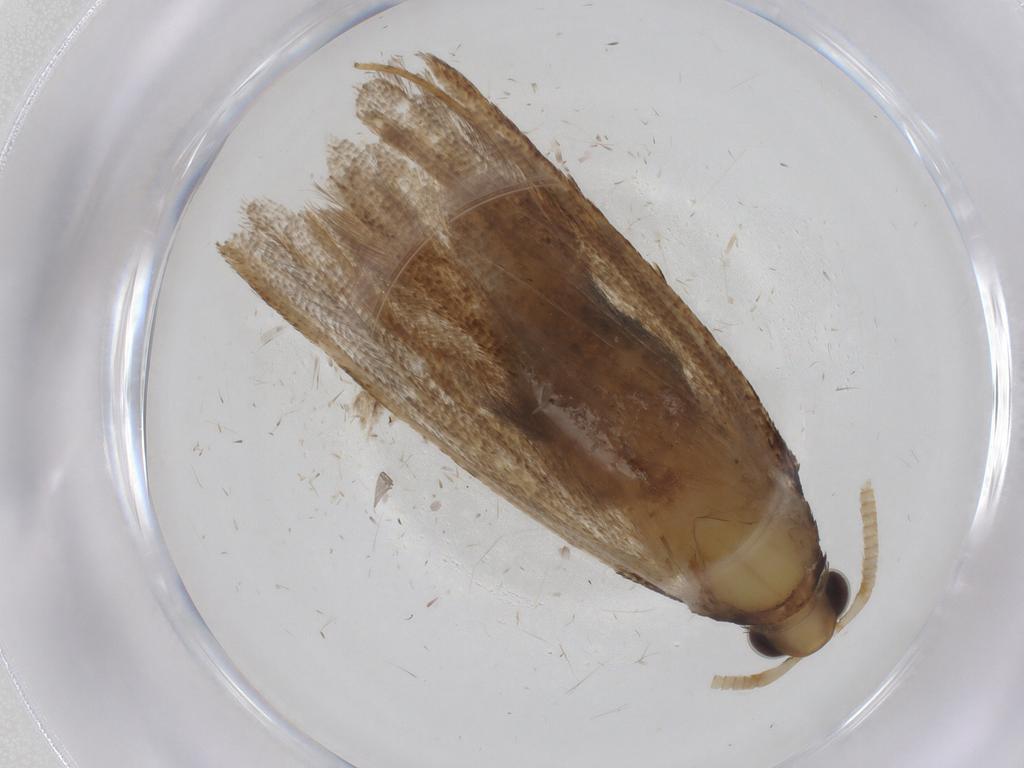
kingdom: Animalia
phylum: Arthropoda
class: Insecta
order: Lepidoptera
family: Lecithoceridae
